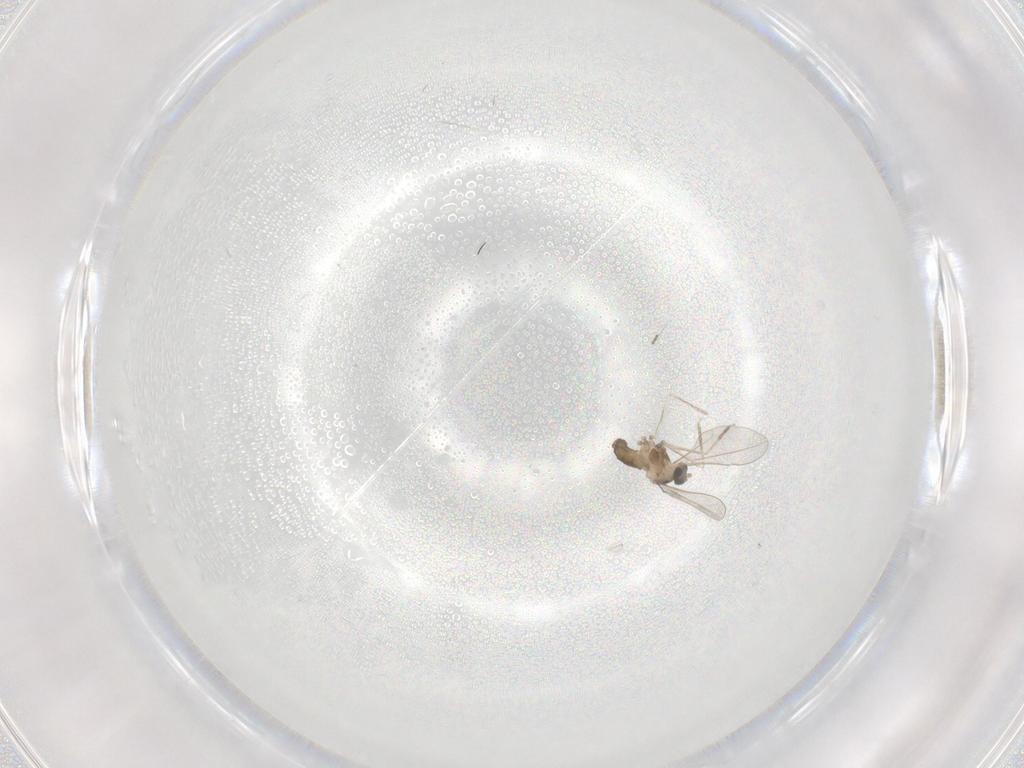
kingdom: Animalia
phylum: Arthropoda
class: Insecta
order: Diptera
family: Cecidomyiidae
